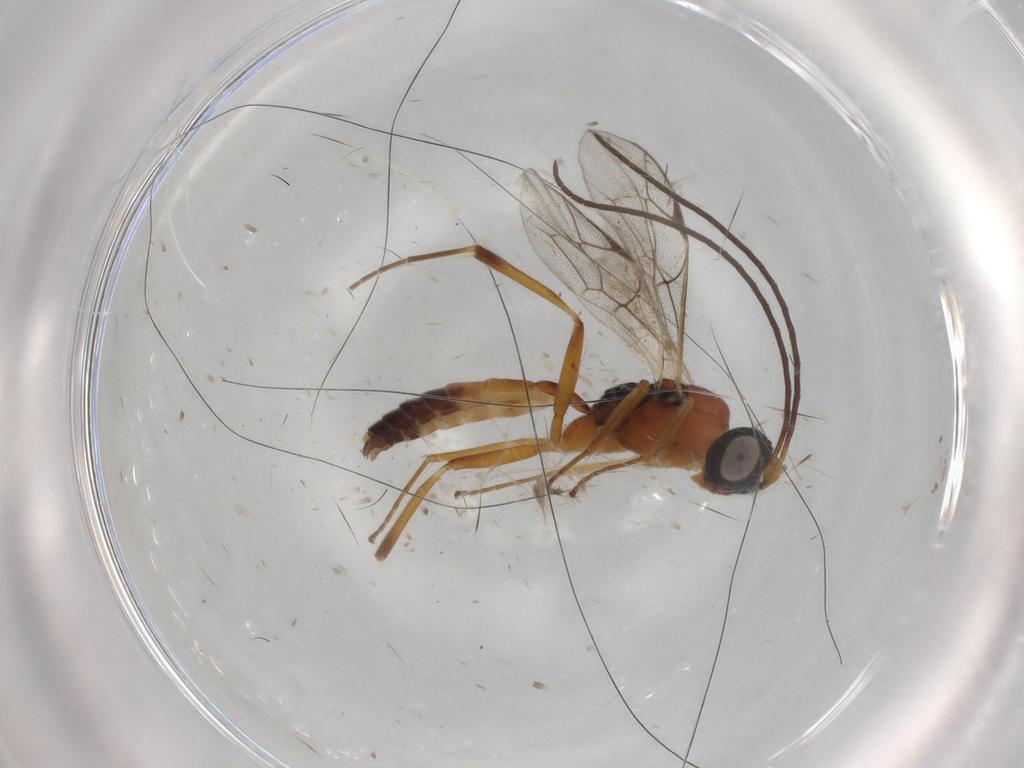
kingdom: Animalia
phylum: Arthropoda
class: Insecta
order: Hymenoptera
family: Ichneumonidae
